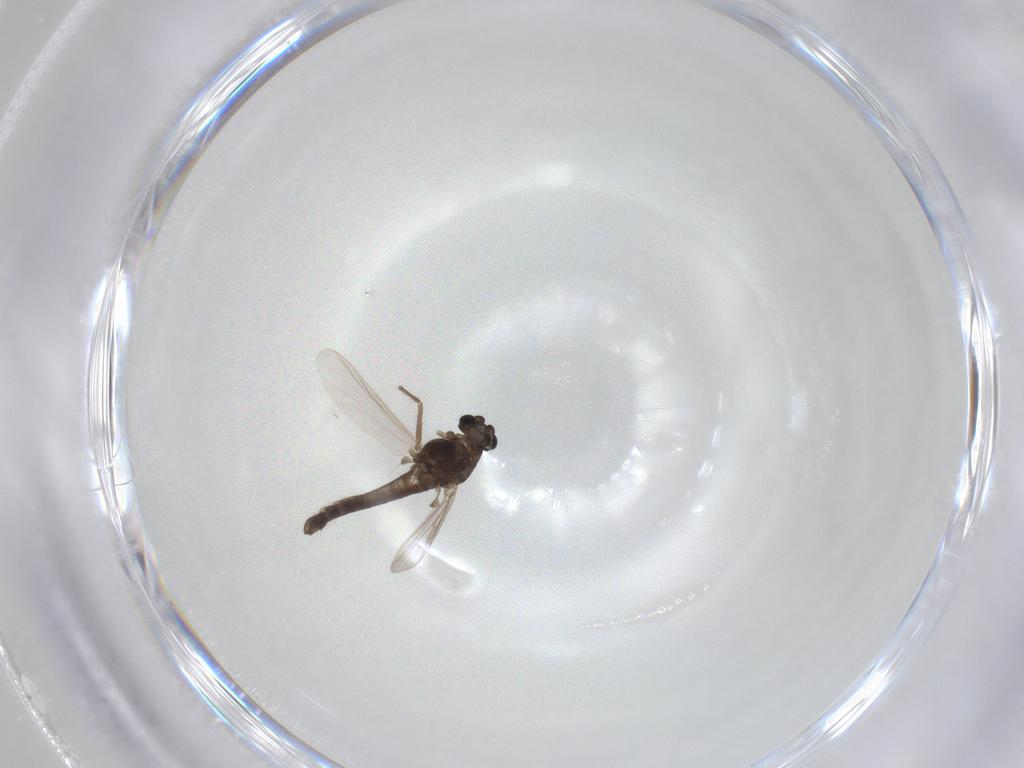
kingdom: Animalia
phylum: Arthropoda
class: Insecta
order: Diptera
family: Chironomidae
